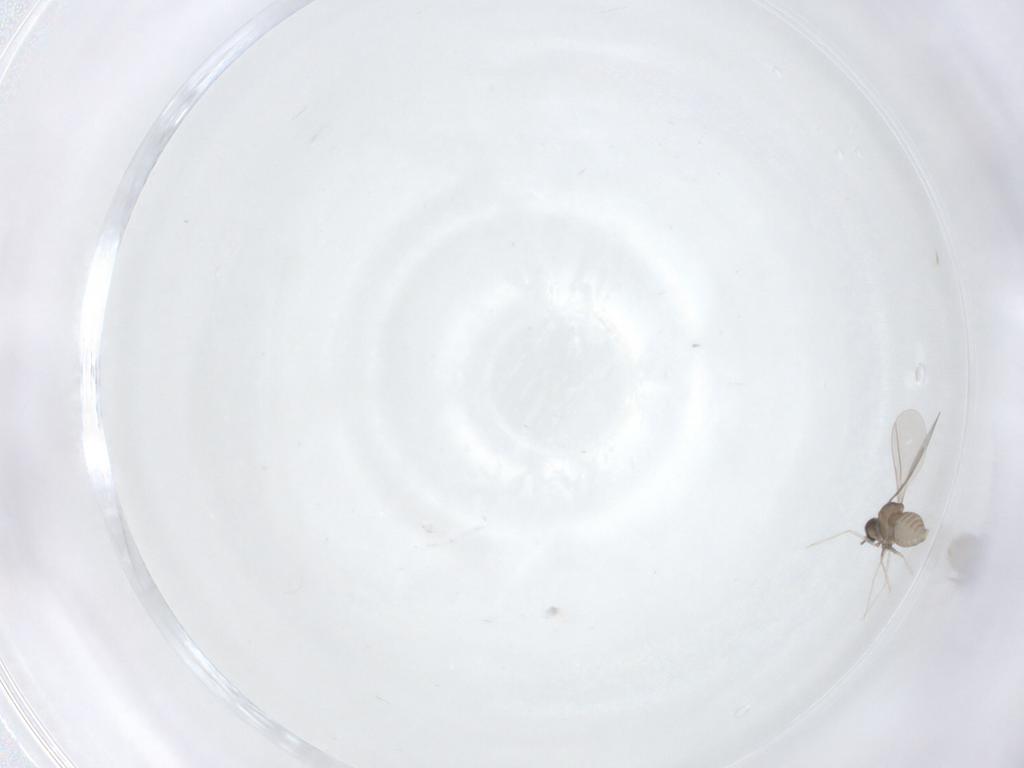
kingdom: Animalia
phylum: Arthropoda
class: Insecta
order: Diptera
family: Cecidomyiidae
